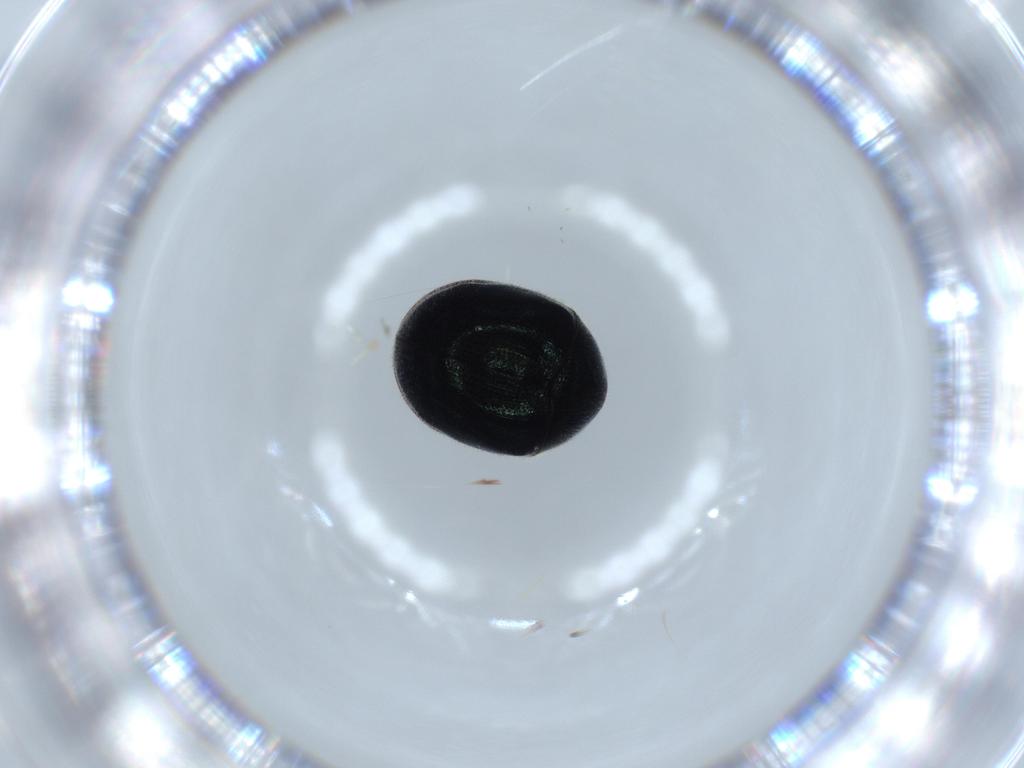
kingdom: Animalia
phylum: Arthropoda
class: Insecta
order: Coleoptera
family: Ptinidae
